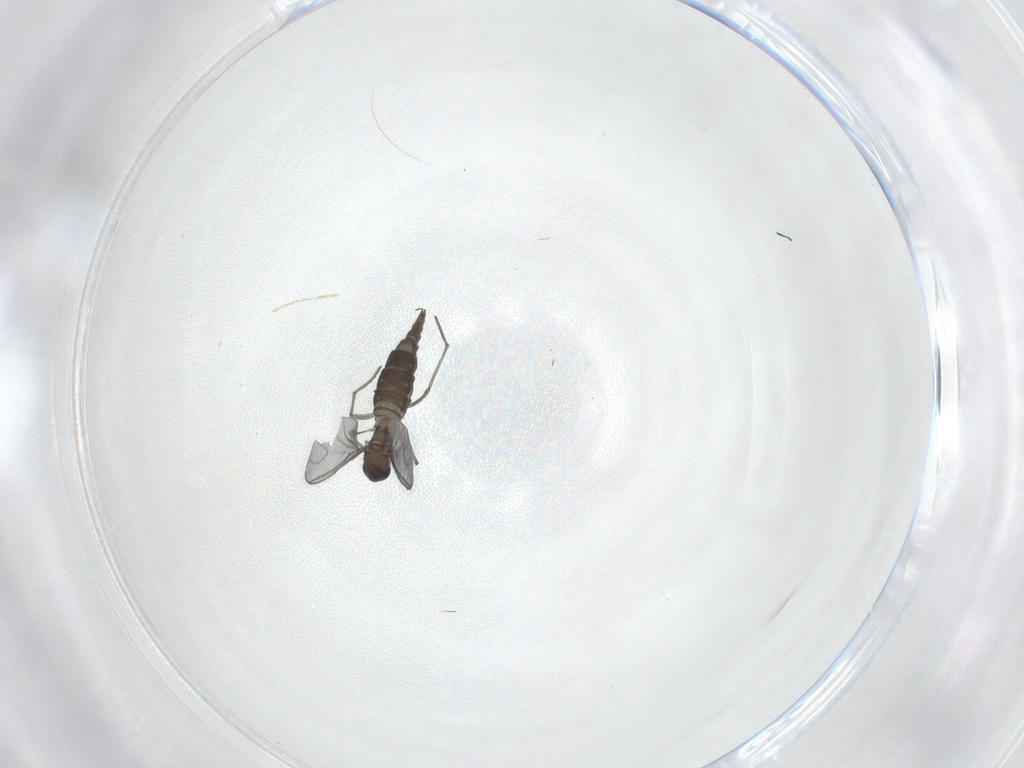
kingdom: Animalia
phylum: Arthropoda
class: Insecta
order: Diptera
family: Sciaridae
